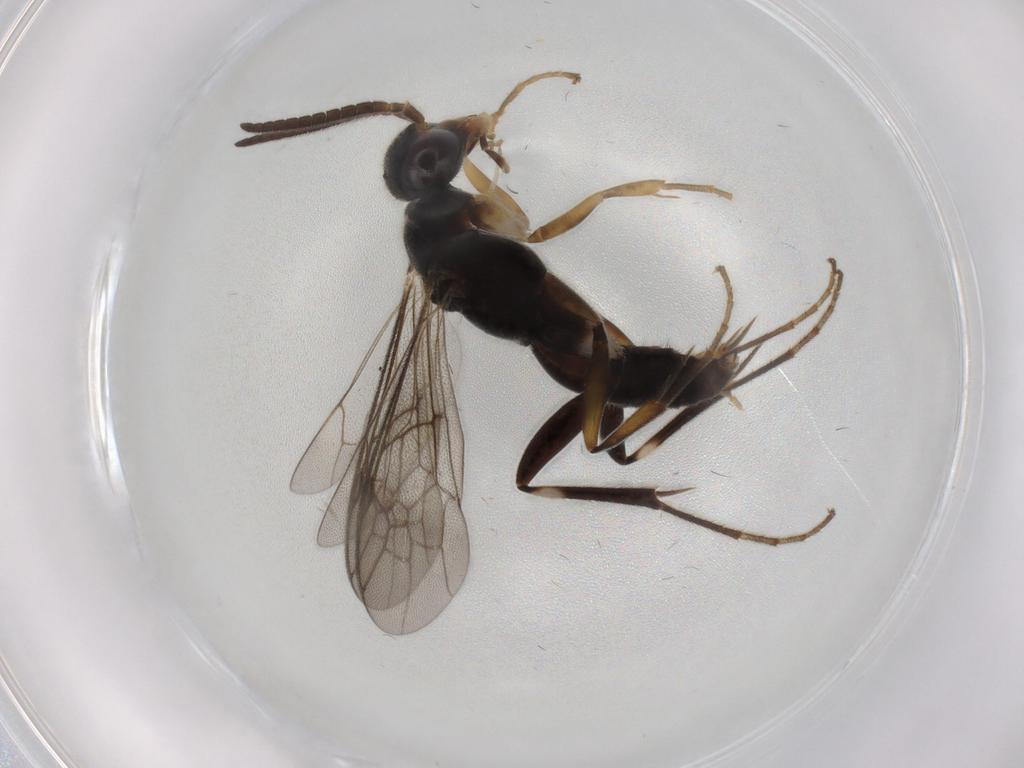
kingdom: Animalia
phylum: Arthropoda
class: Insecta
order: Hymenoptera
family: Pompilidae
